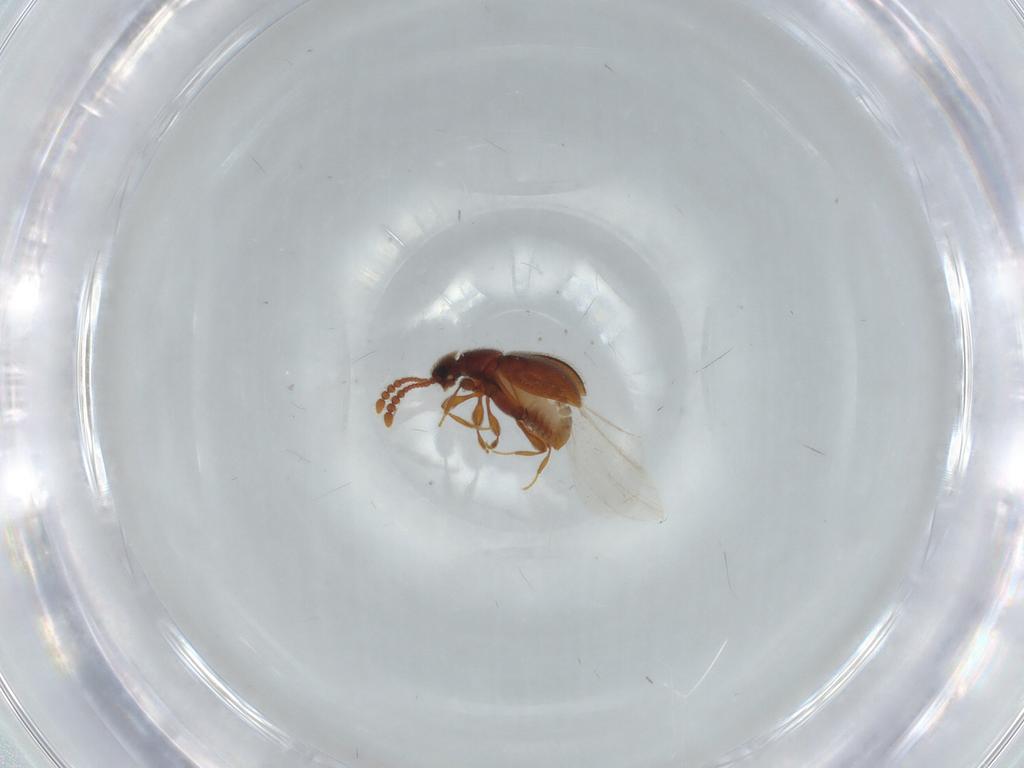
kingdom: Animalia
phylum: Arthropoda
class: Insecta
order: Coleoptera
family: Staphylinidae
